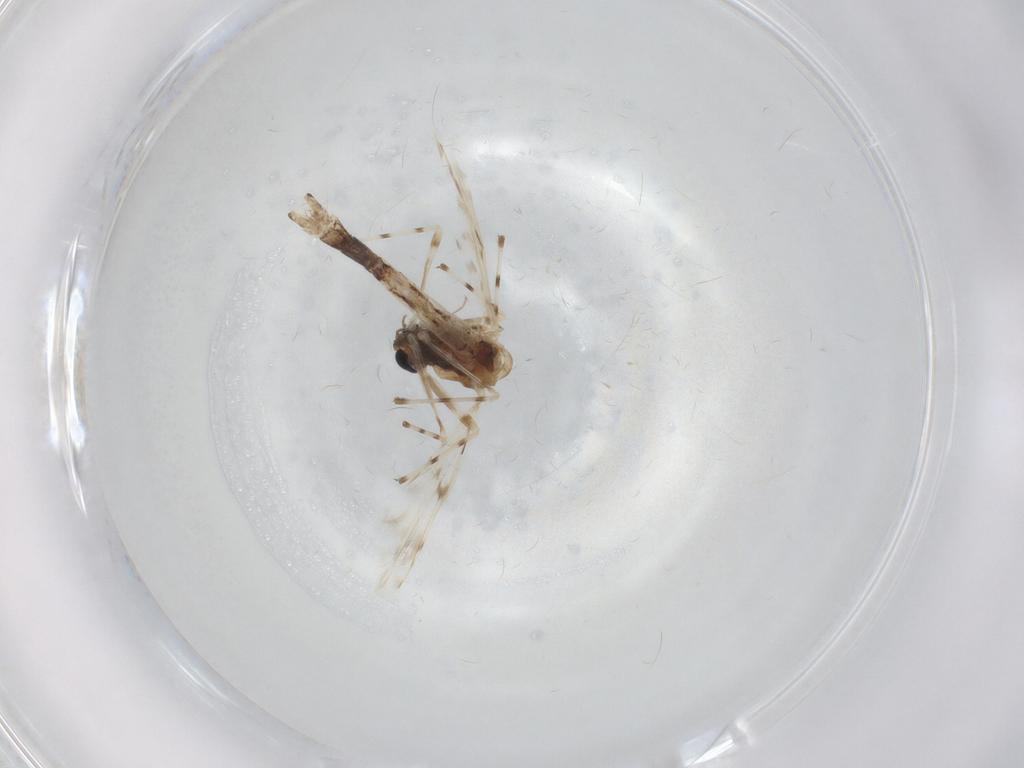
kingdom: Animalia
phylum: Arthropoda
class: Insecta
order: Diptera
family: Chironomidae
